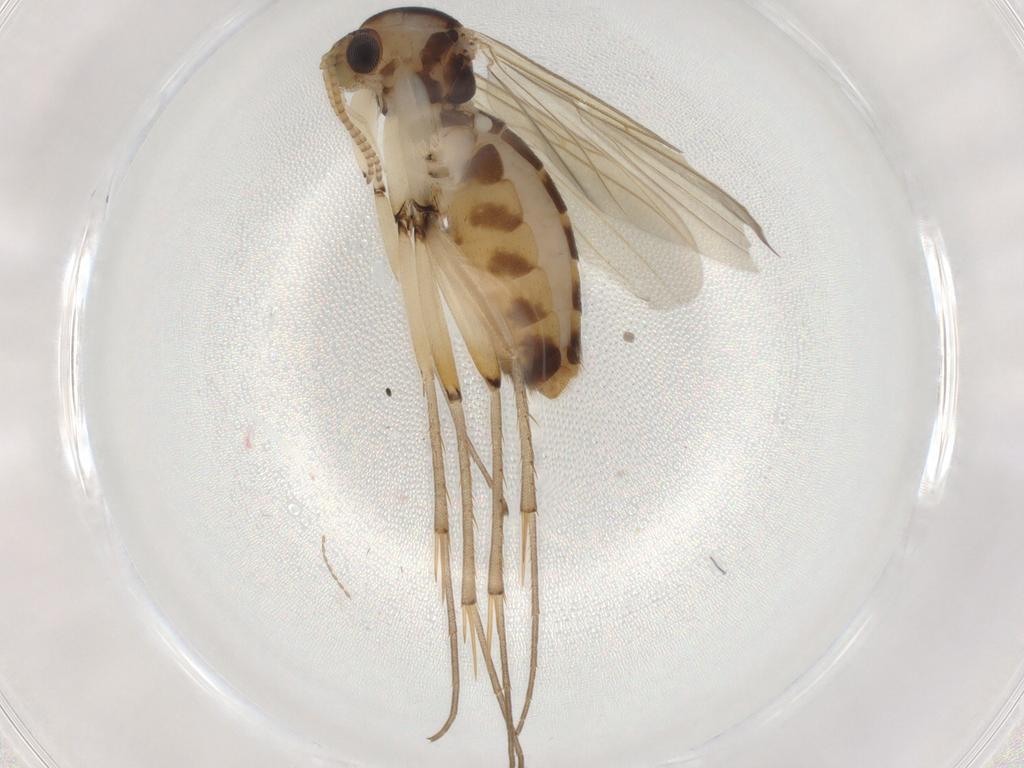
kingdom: Animalia
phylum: Arthropoda
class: Insecta
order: Diptera
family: Mycetophilidae
